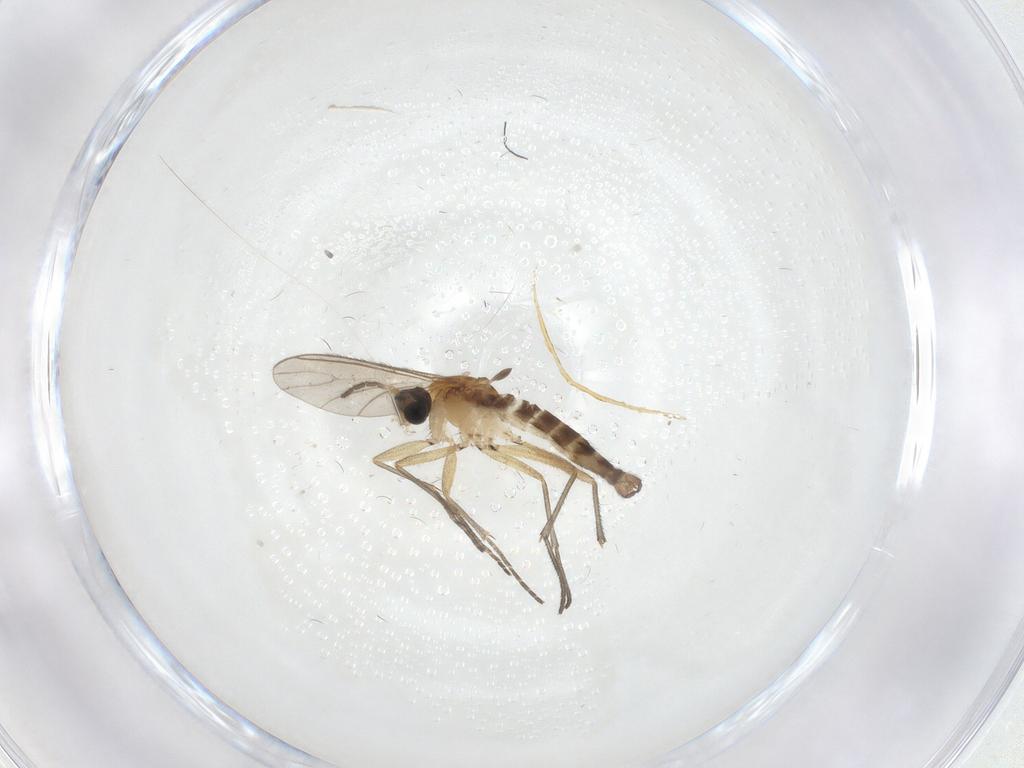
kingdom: Animalia
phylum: Arthropoda
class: Insecta
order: Diptera
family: Sciaridae
